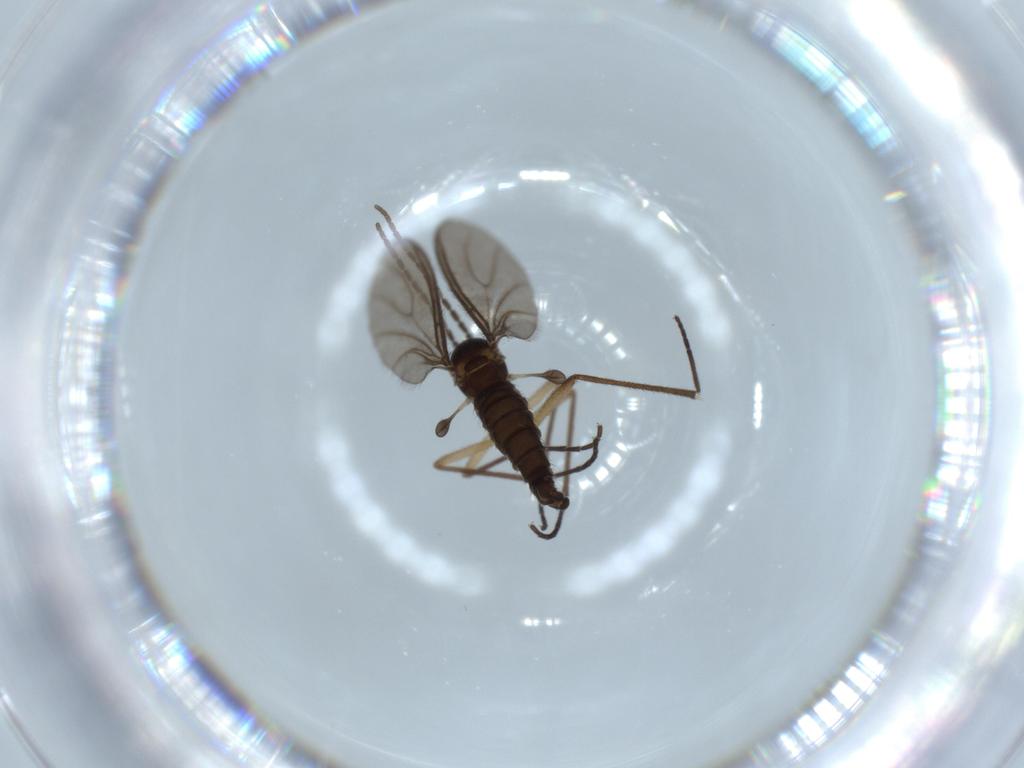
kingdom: Animalia
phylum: Arthropoda
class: Insecta
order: Diptera
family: Sciaridae
